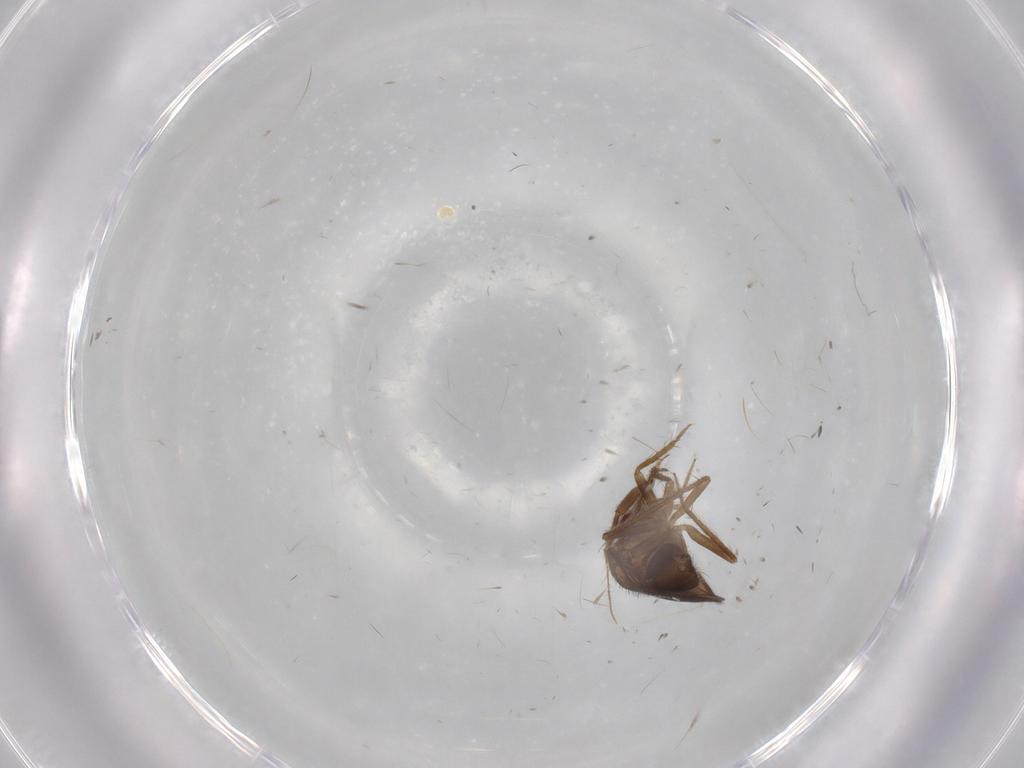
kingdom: Animalia
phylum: Arthropoda
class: Insecta
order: Hemiptera
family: Ceratocombidae
